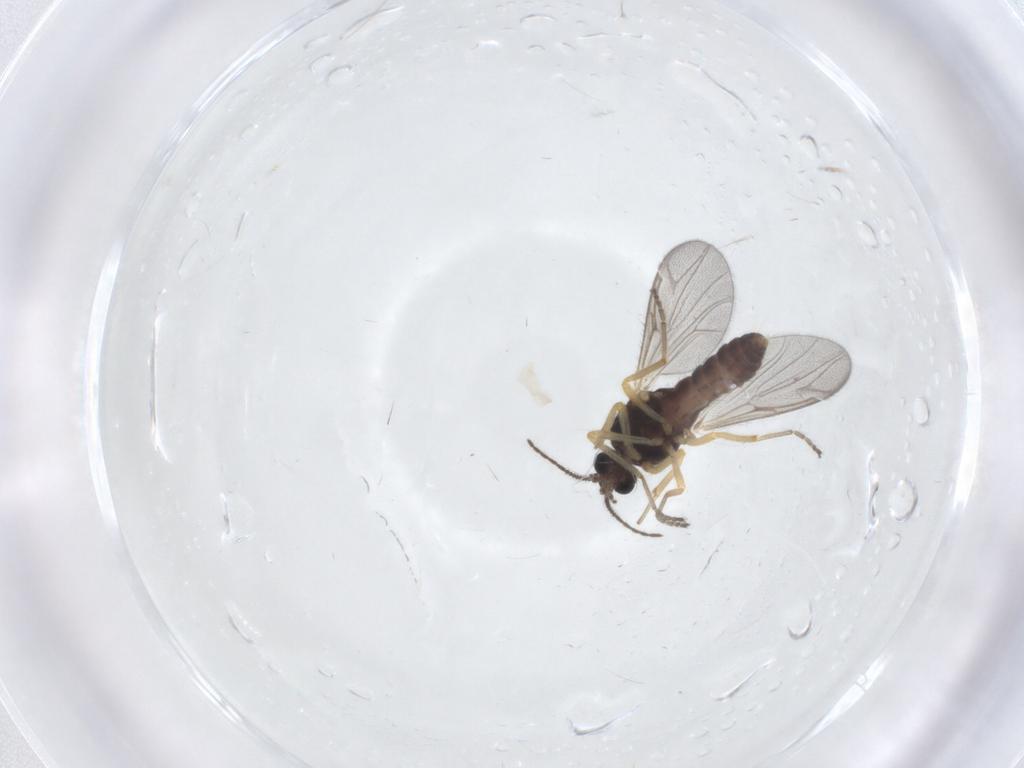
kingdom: Animalia
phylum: Arthropoda
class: Insecta
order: Diptera
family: Ceratopogonidae
